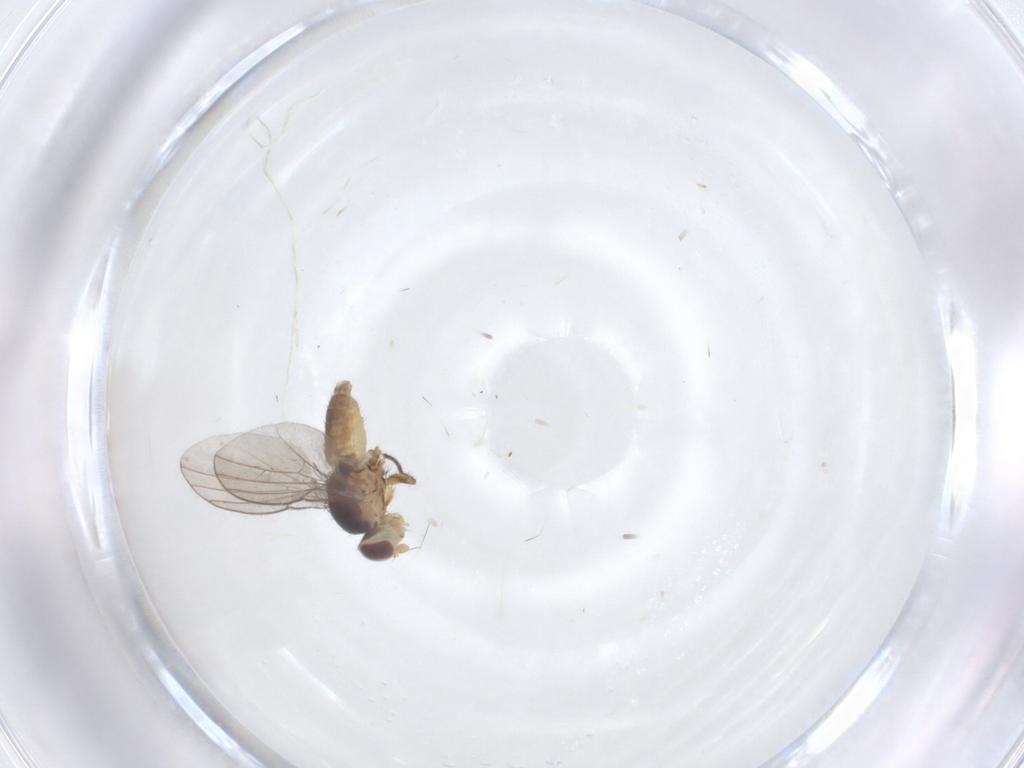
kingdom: Animalia
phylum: Arthropoda
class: Insecta
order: Diptera
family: Agromyzidae
